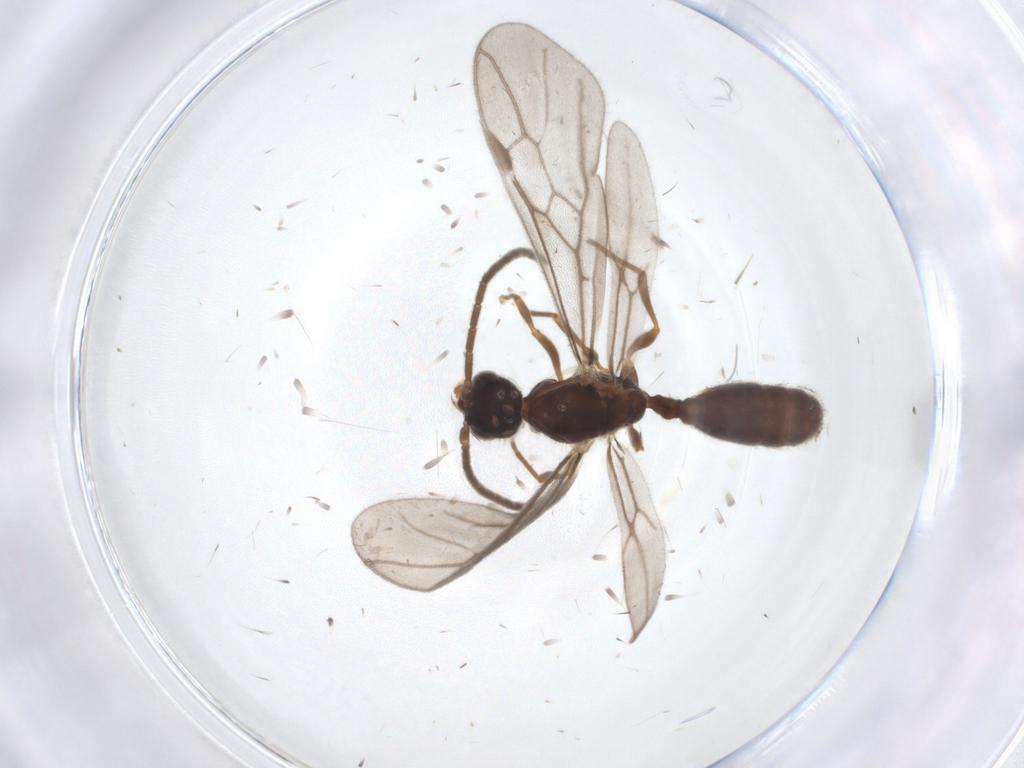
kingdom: Animalia
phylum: Arthropoda
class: Insecta
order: Hymenoptera
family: Formicidae
